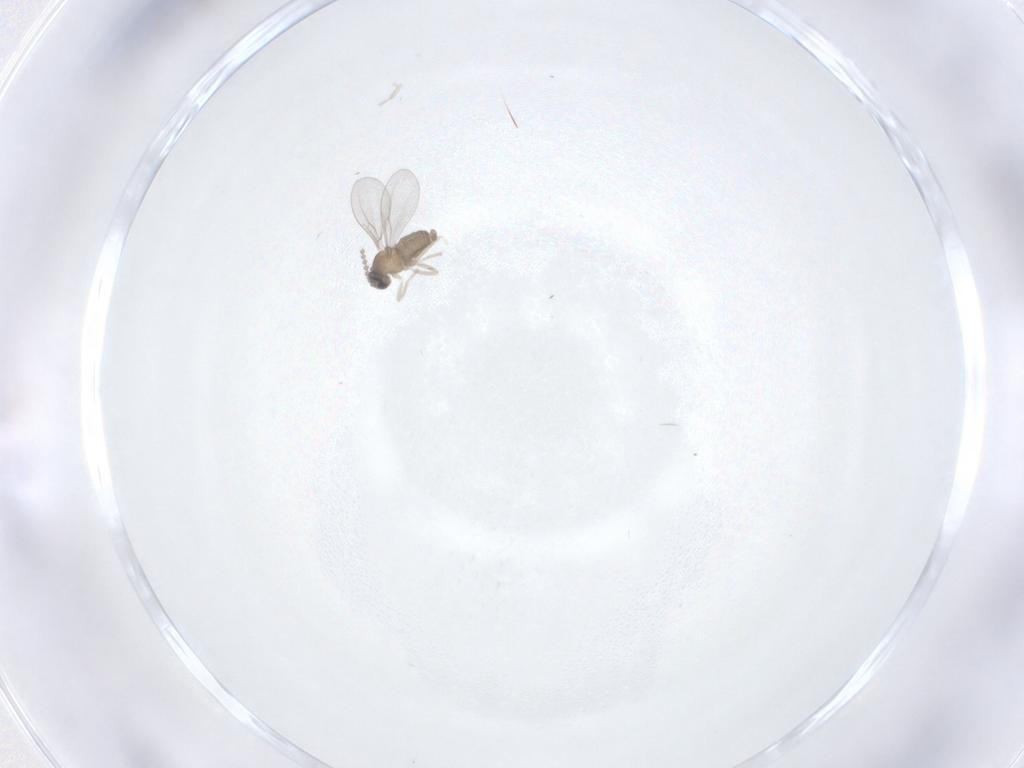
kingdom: Animalia
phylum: Arthropoda
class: Insecta
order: Diptera
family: Cecidomyiidae
